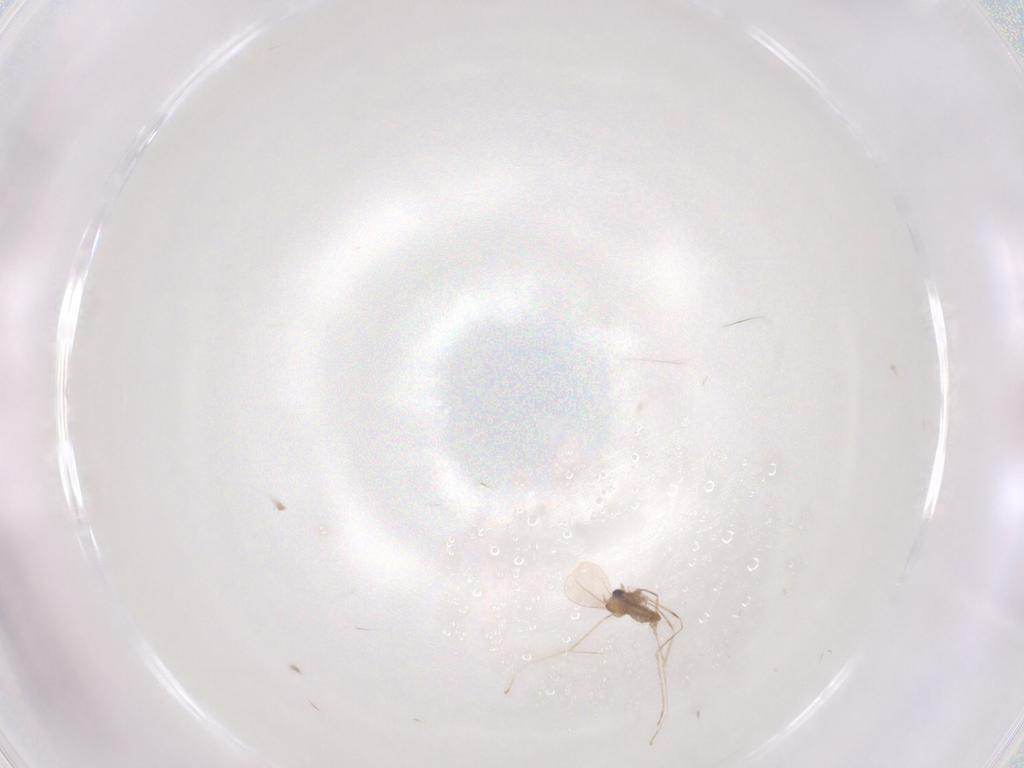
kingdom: Animalia
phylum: Arthropoda
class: Insecta
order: Diptera
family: Cecidomyiidae
